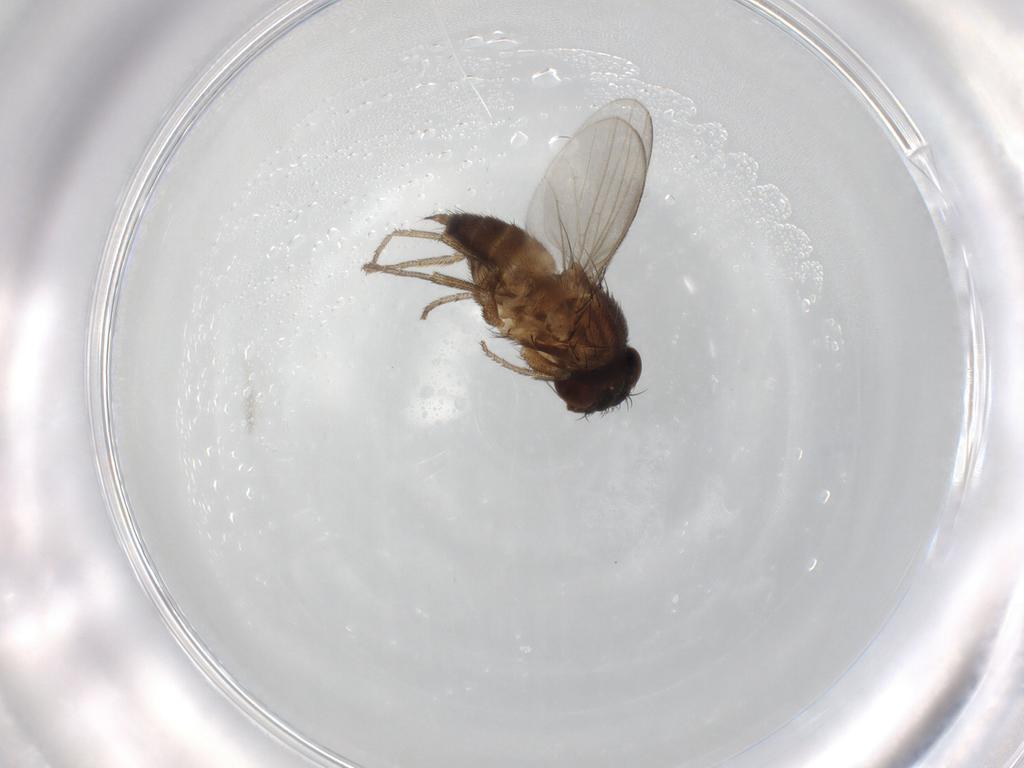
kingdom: Animalia
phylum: Arthropoda
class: Insecta
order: Diptera
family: Milichiidae
